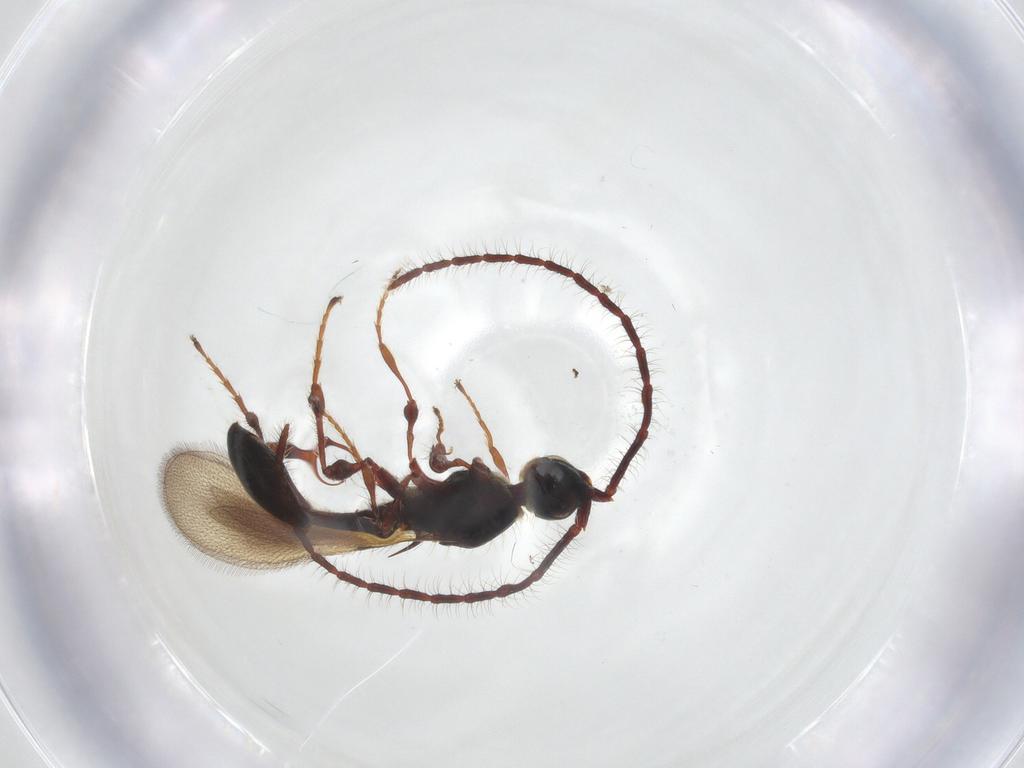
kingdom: Animalia
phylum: Arthropoda
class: Insecta
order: Hymenoptera
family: Diapriidae
